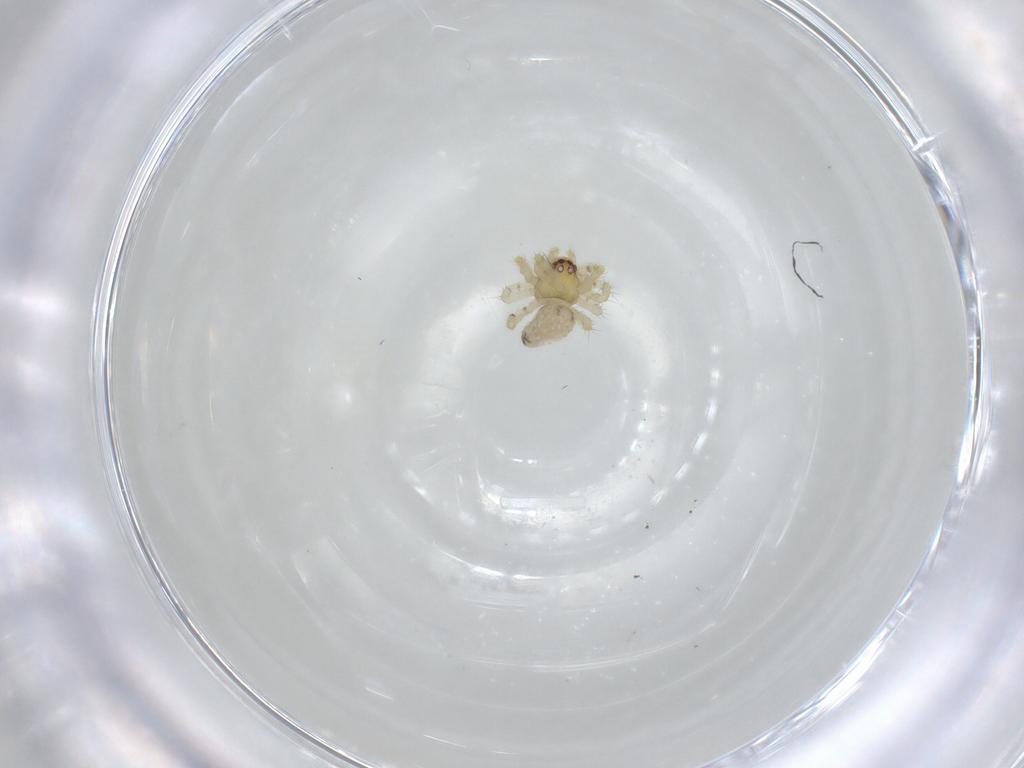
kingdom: Animalia
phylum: Arthropoda
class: Arachnida
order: Araneae
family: Theridiidae
